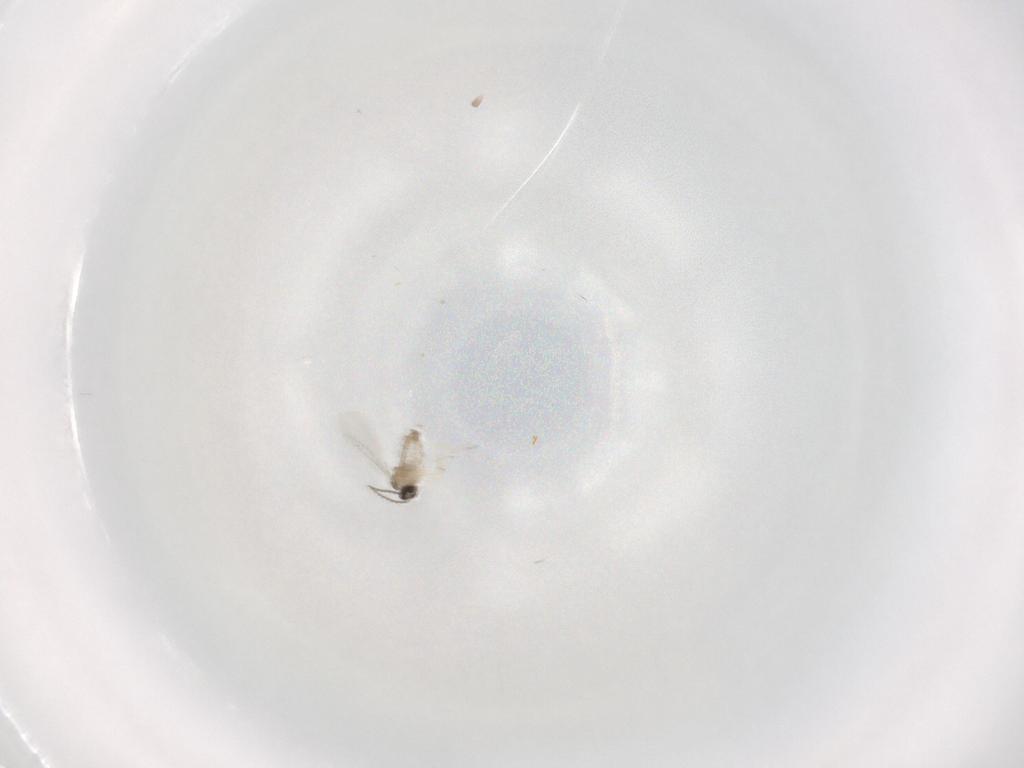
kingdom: Animalia
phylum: Arthropoda
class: Insecta
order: Diptera
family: Cecidomyiidae
